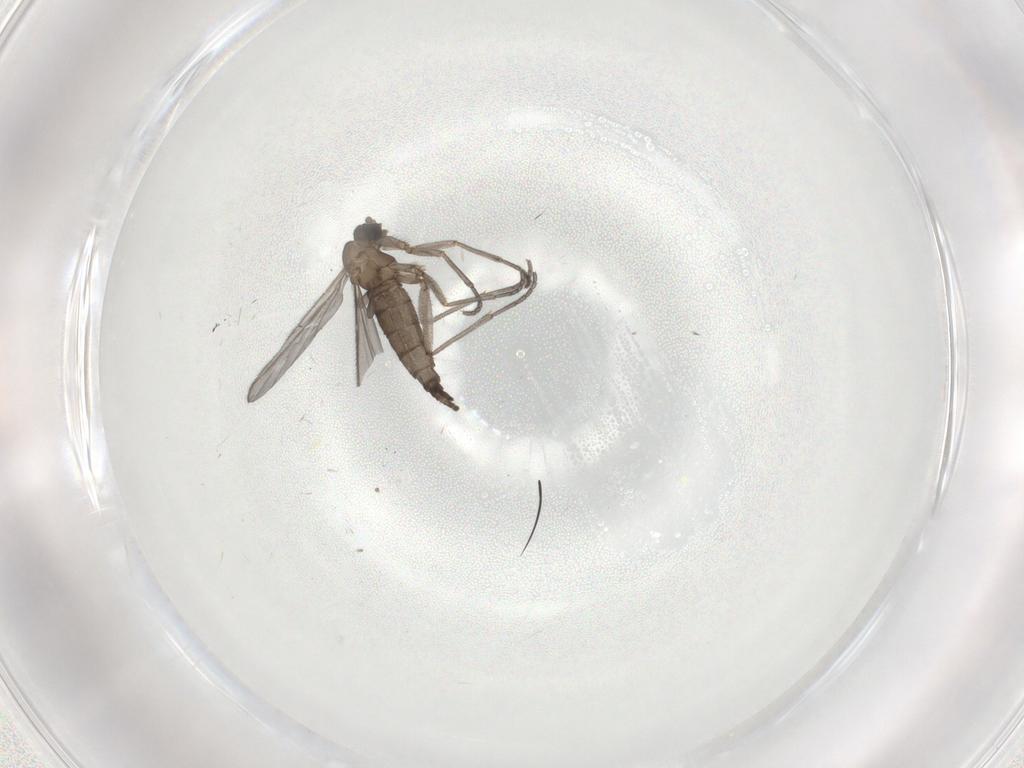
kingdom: Animalia
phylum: Arthropoda
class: Insecta
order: Diptera
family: Sciaridae
